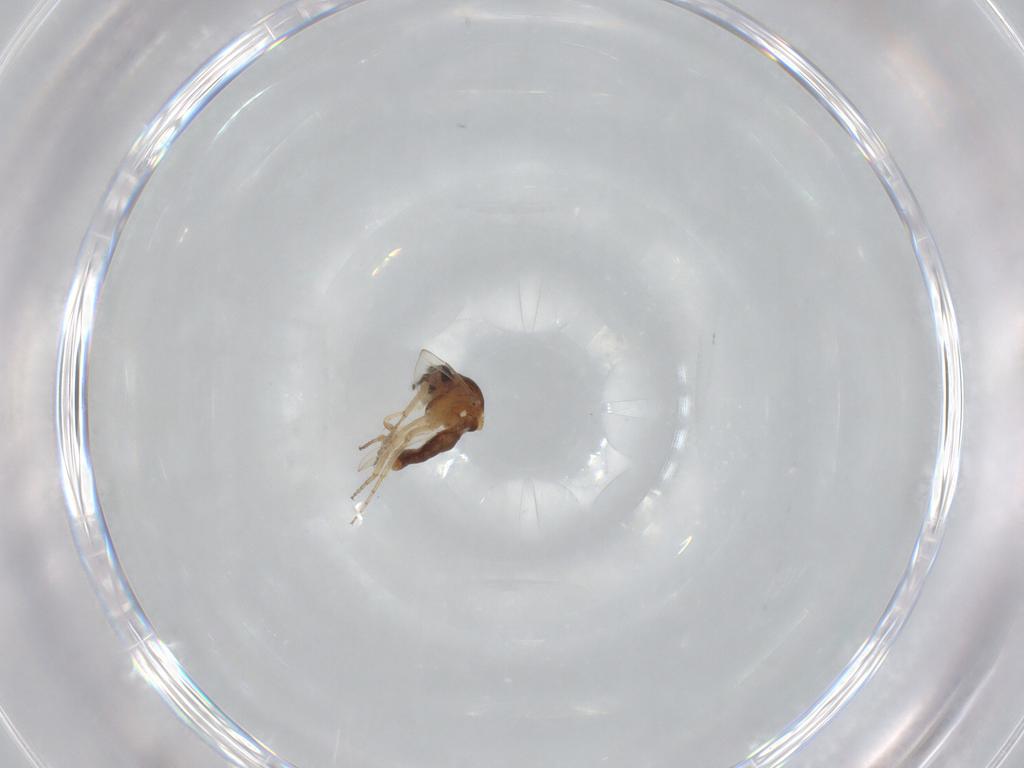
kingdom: Animalia
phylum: Arthropoda
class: Insecta
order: Diptera
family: Ceratopogonidae
